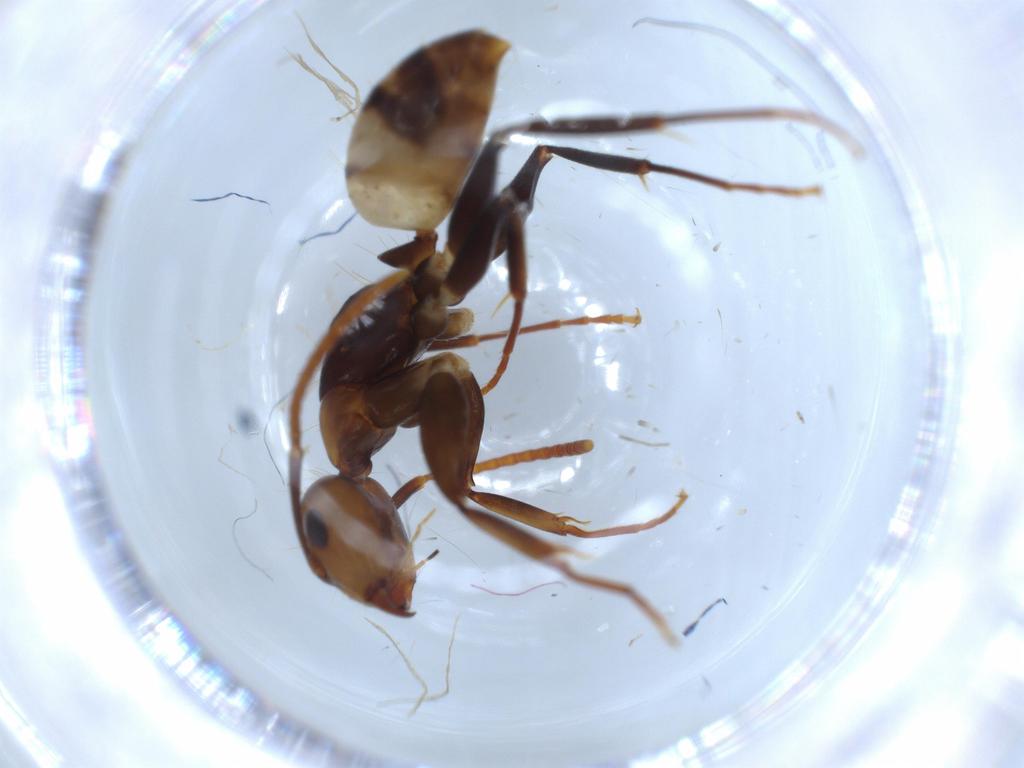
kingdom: Animalia
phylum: Arthropoda
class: Insecta
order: Hymenoptera
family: Formicidae
